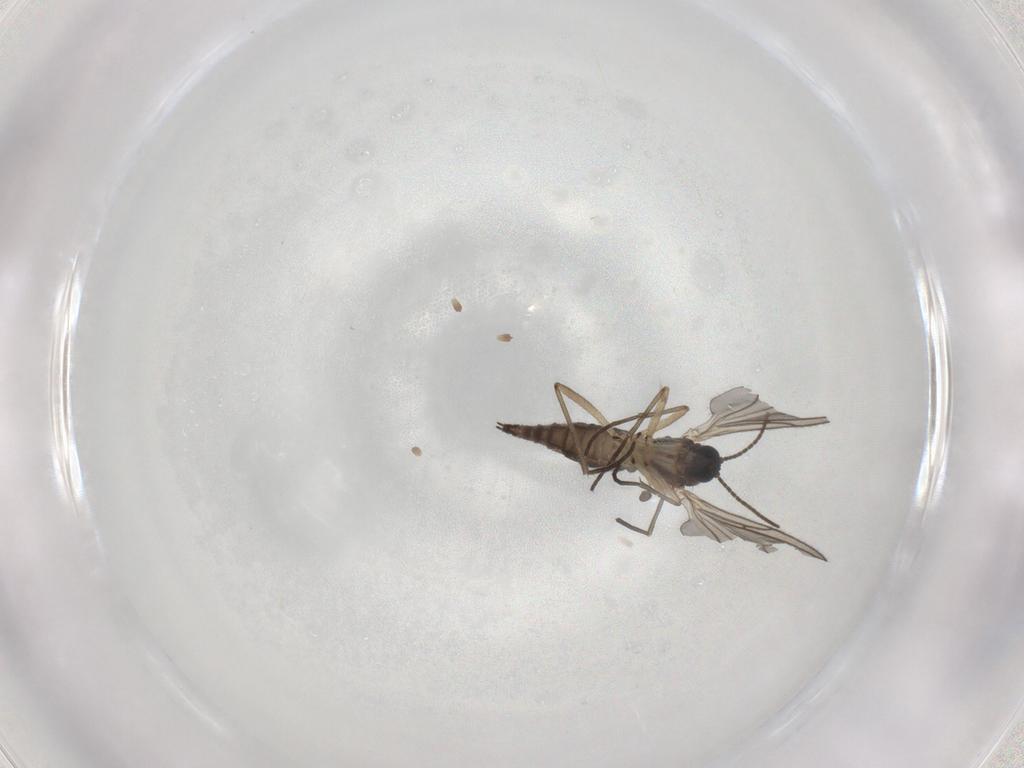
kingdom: Animalia
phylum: Arthropoda
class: Insecta
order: Diptera
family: Sciaridae
